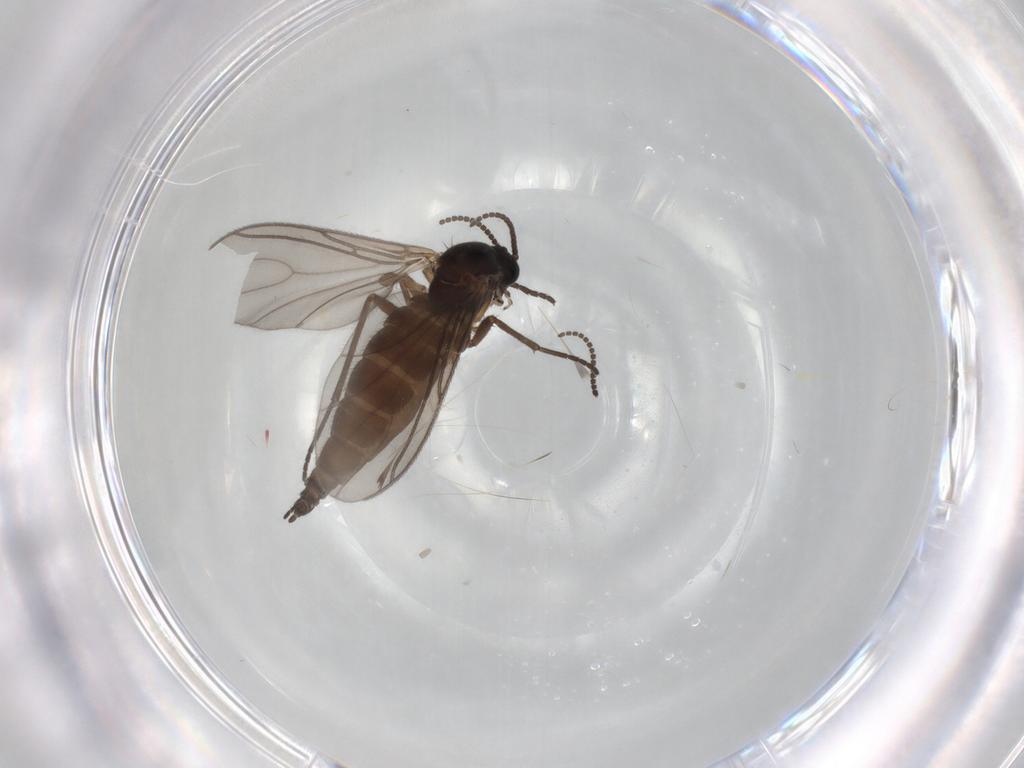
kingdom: Animalia
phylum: Arthropoda
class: Insecta
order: Diptera
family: Sciaridae
